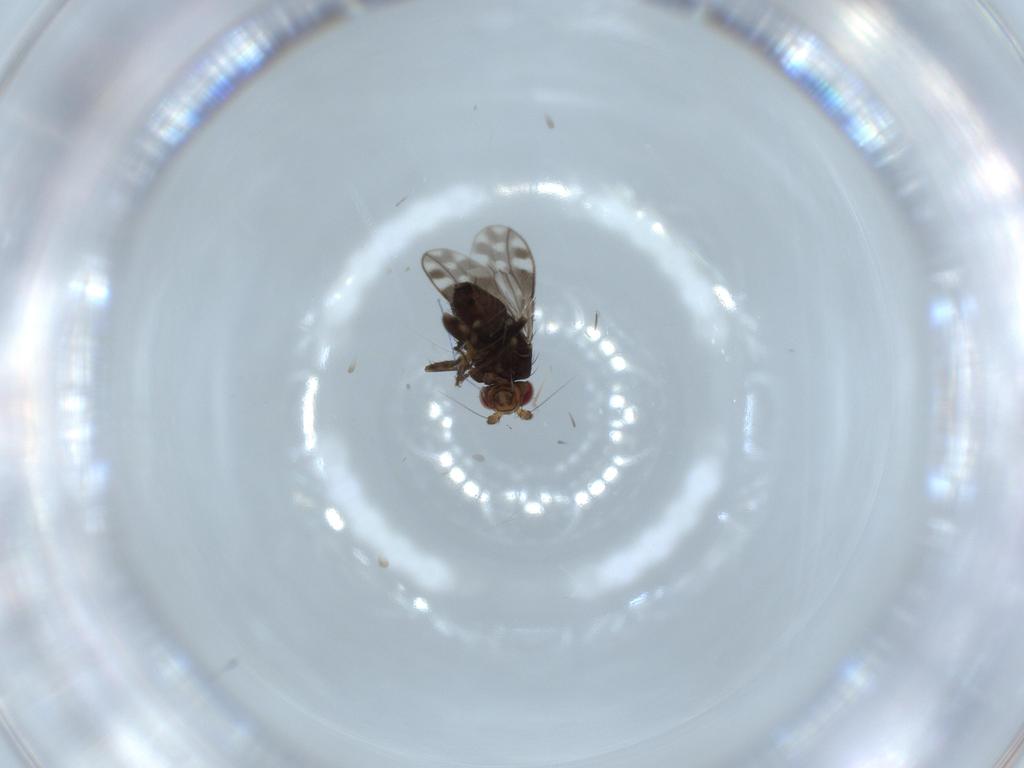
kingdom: Animalia
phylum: Arthropoda
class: Insecta
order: Diptera
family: Sphaeroceridae
